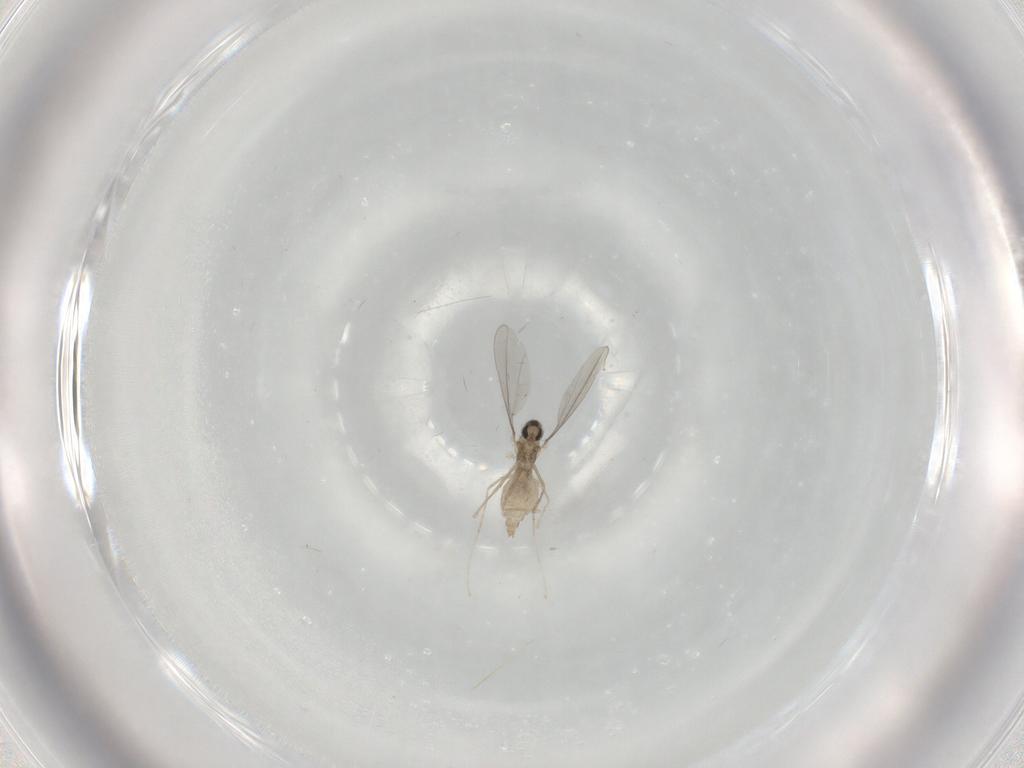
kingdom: Animalia
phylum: Arthropoda
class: Insecta
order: Diptera
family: Cecidomyiidae
